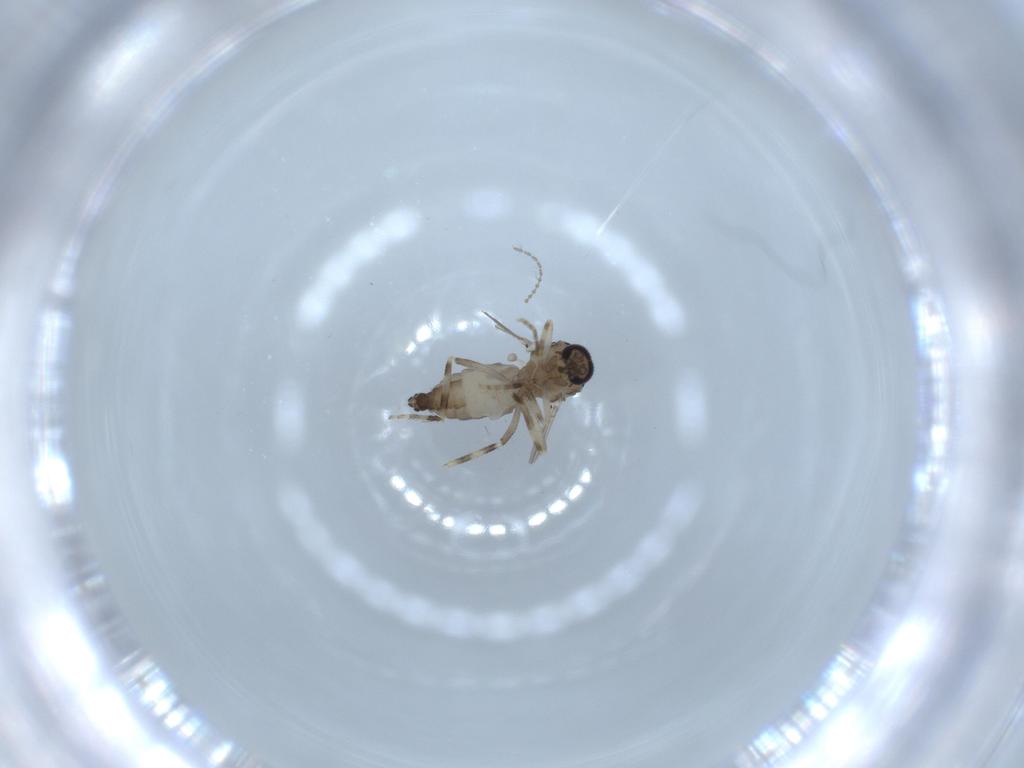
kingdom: Animalia
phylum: Arthropoda
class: Insecta
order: Diptera
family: Ceratopogonidae
